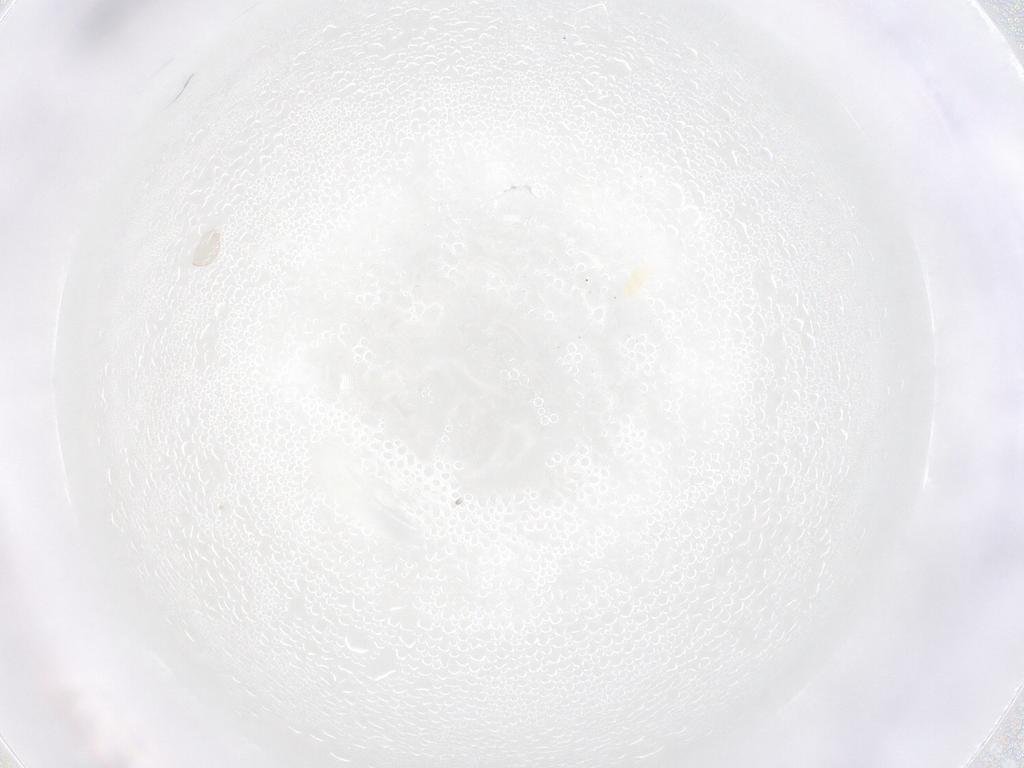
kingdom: Animalia
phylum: Arthropoda
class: Arachnida
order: Trombidiformes
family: Eupodidae
